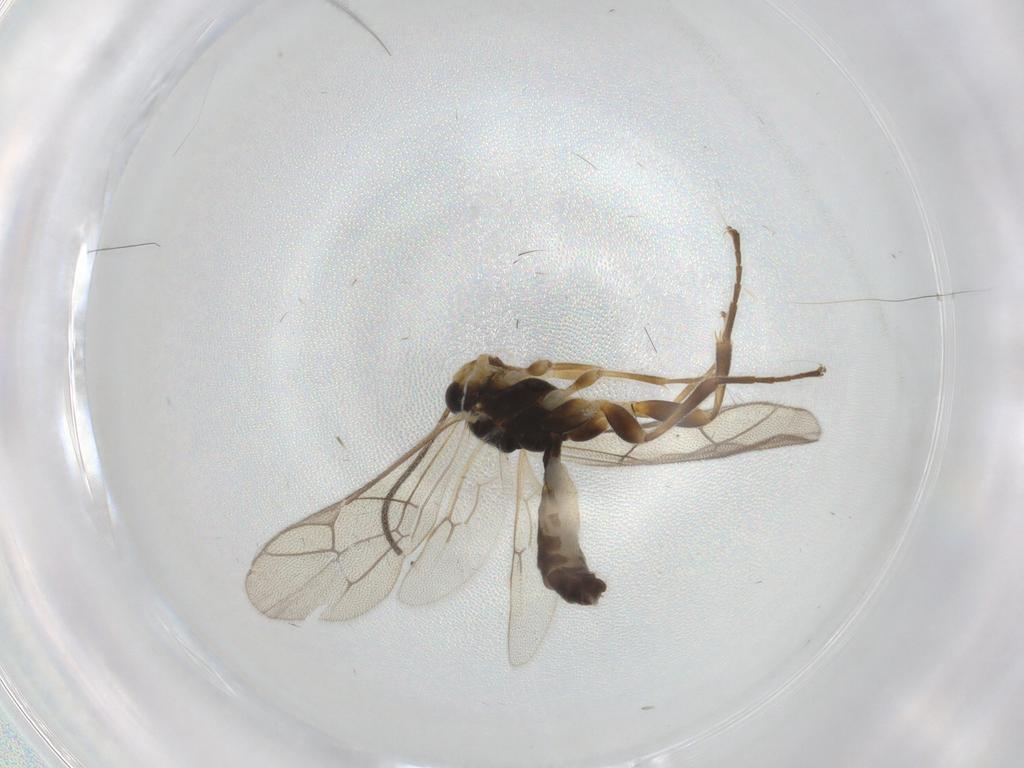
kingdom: Animalia
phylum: Arthropoda
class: Insecta
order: Hymenoptera
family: Ichneumonidae
